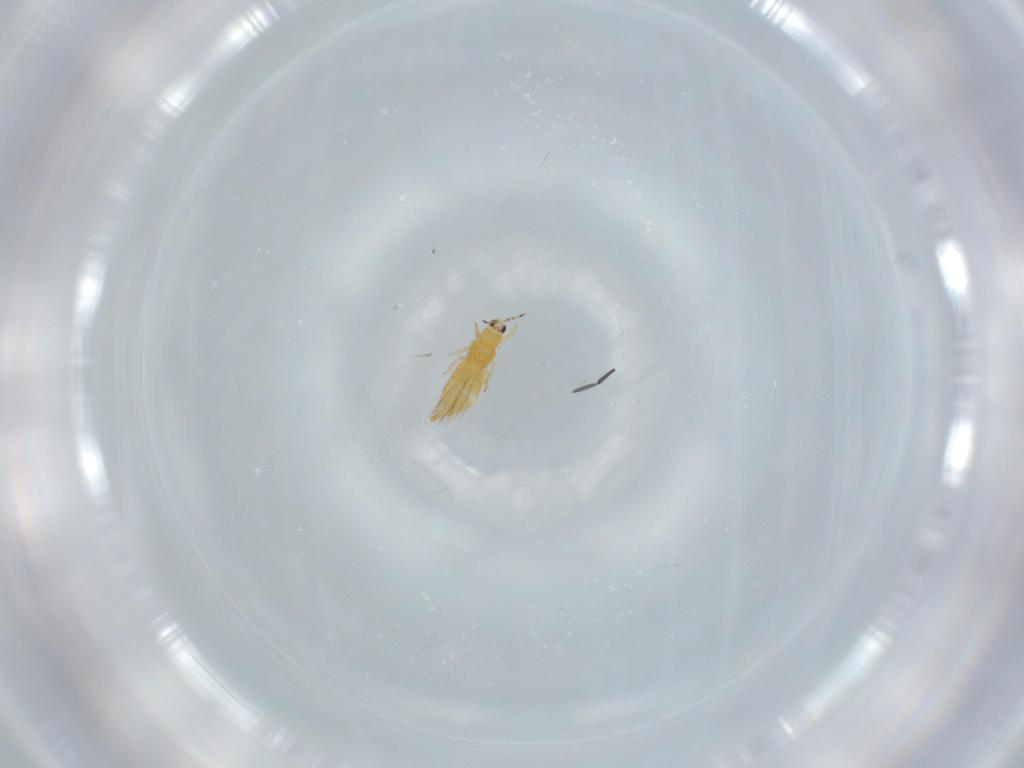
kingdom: Animalia
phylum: Arthropoda
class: Insecta
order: Thysanoptera
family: Thripidae
